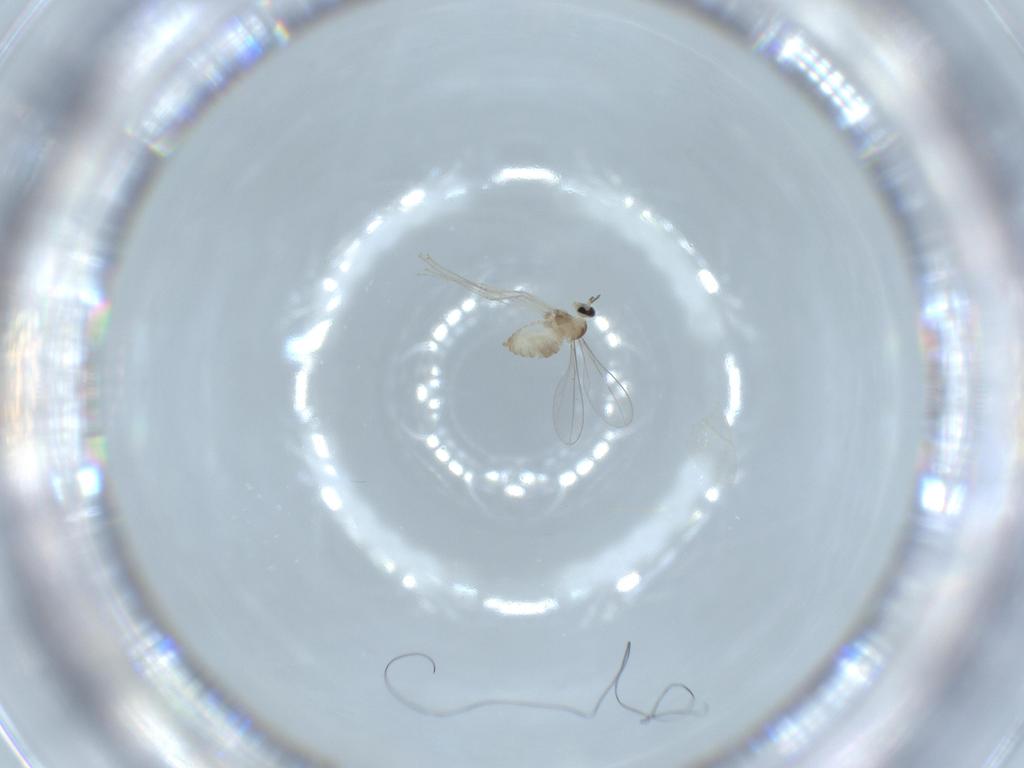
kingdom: Animalia
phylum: Arthropoda
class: Insecta
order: Diptera
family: Cecidomyiidae
